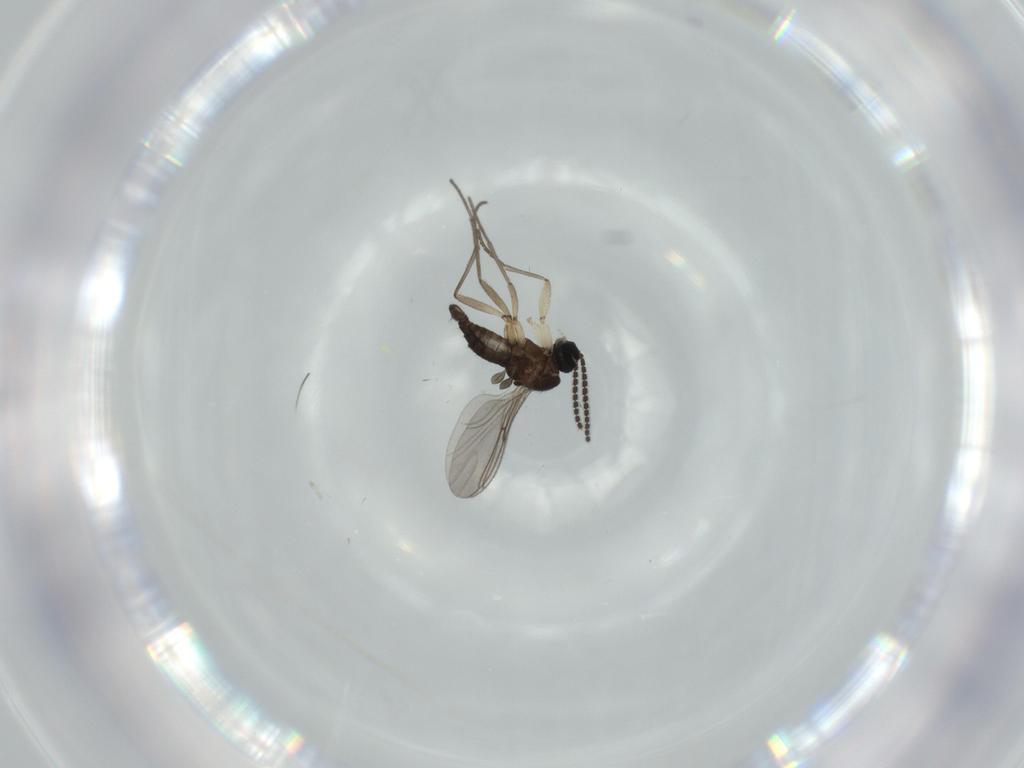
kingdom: Animalia
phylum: Arthropoda
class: Insecta
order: Diptera
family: Sciaridae
